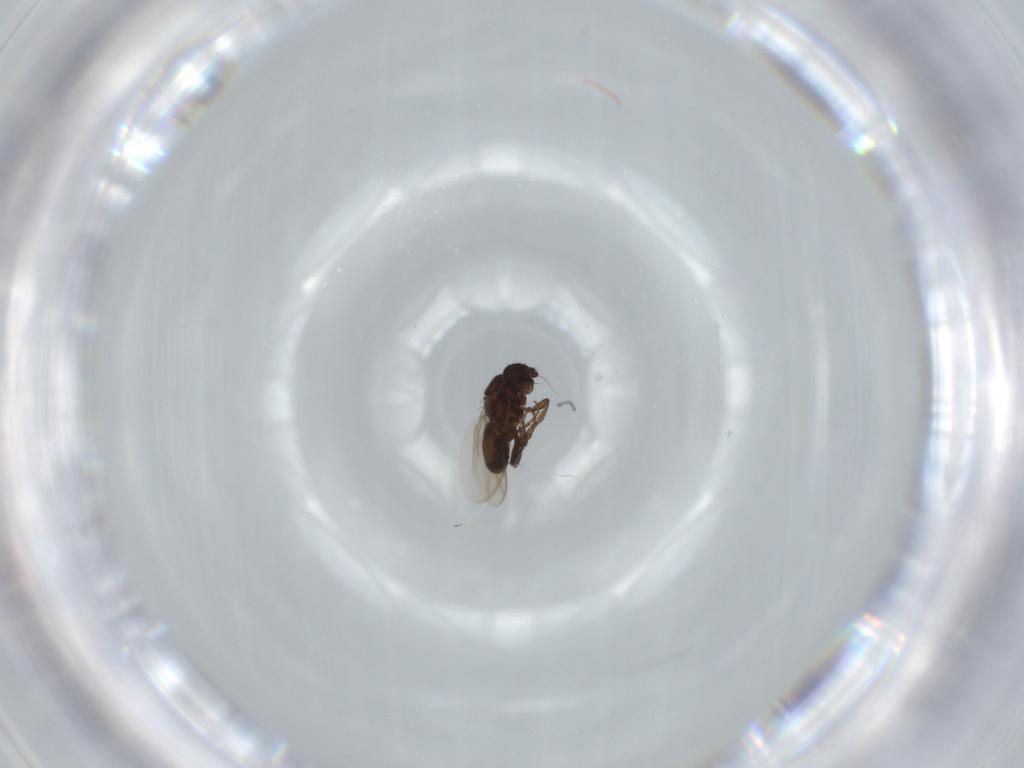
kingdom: Animalia
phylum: Arthropoda
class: Insecta
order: Diptera
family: Sphaeroceridae
